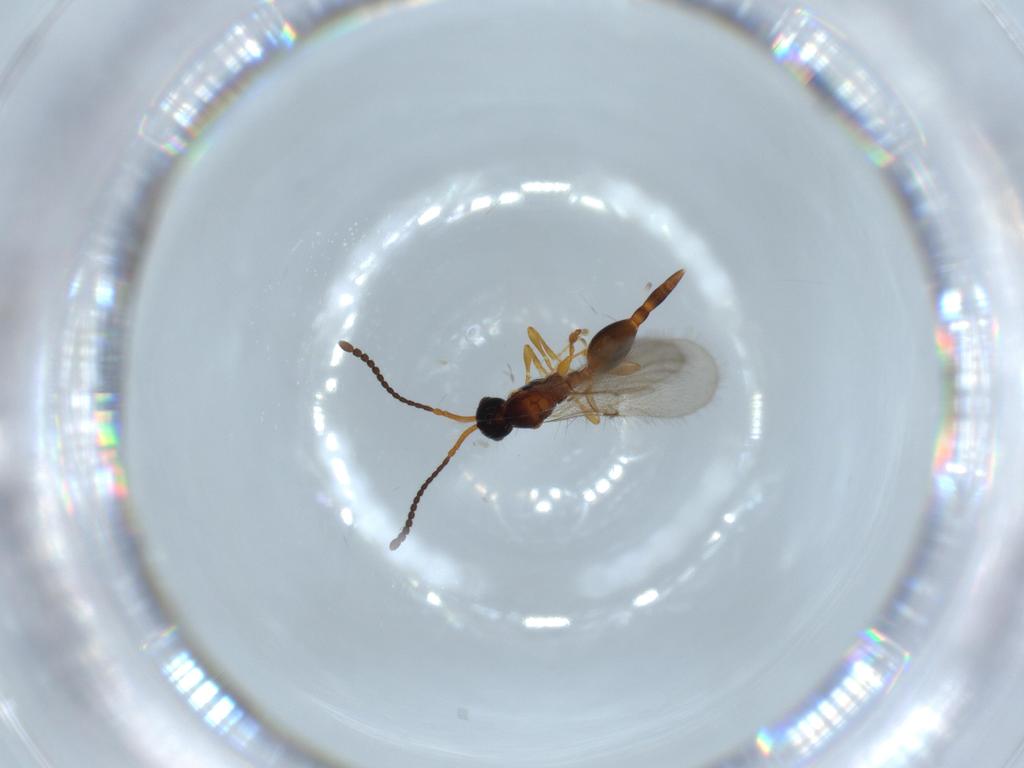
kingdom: Animalia
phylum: Arthropoda
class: Insecta
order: Hymenoptera
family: Diapriidae
